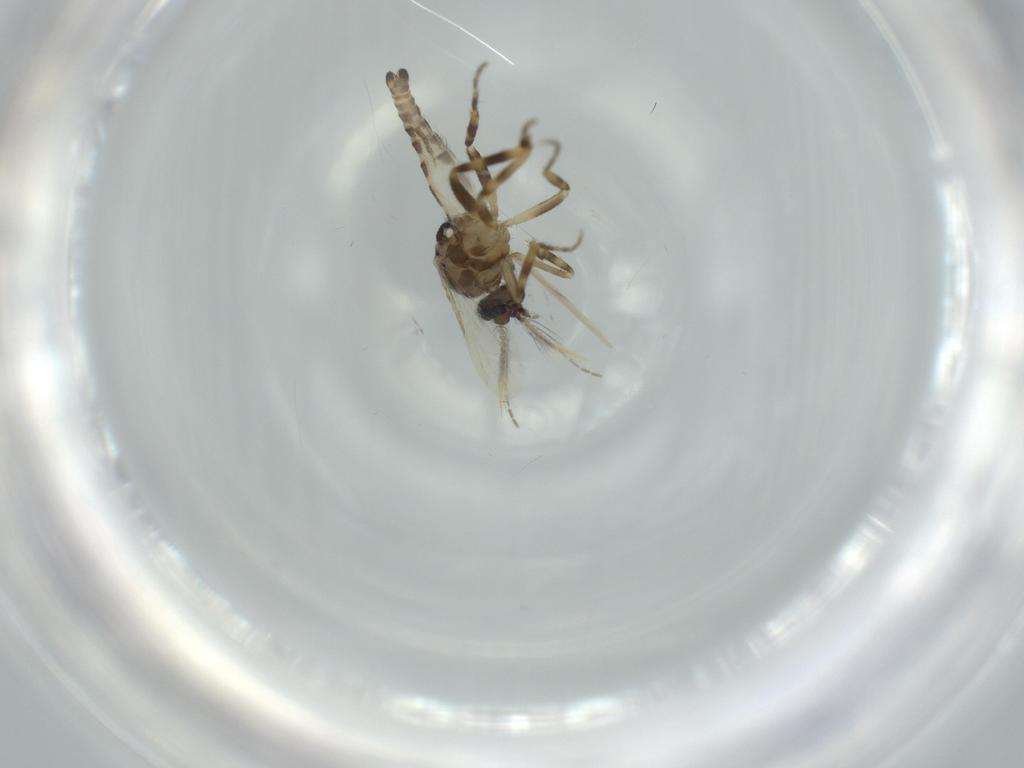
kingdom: Animalia
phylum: Arthropoda
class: Insecta
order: Diptera
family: Ceratopogonidae
